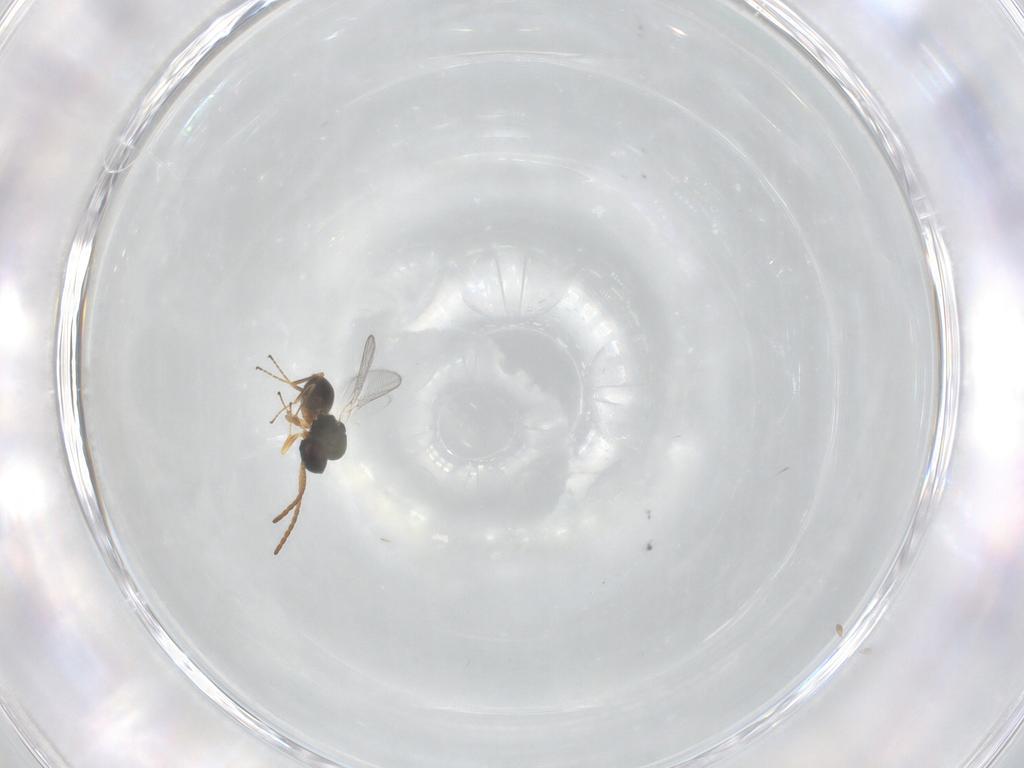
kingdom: Animalia
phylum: Arthropoda
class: Insecta
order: Hymenoptera
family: Figitidae
